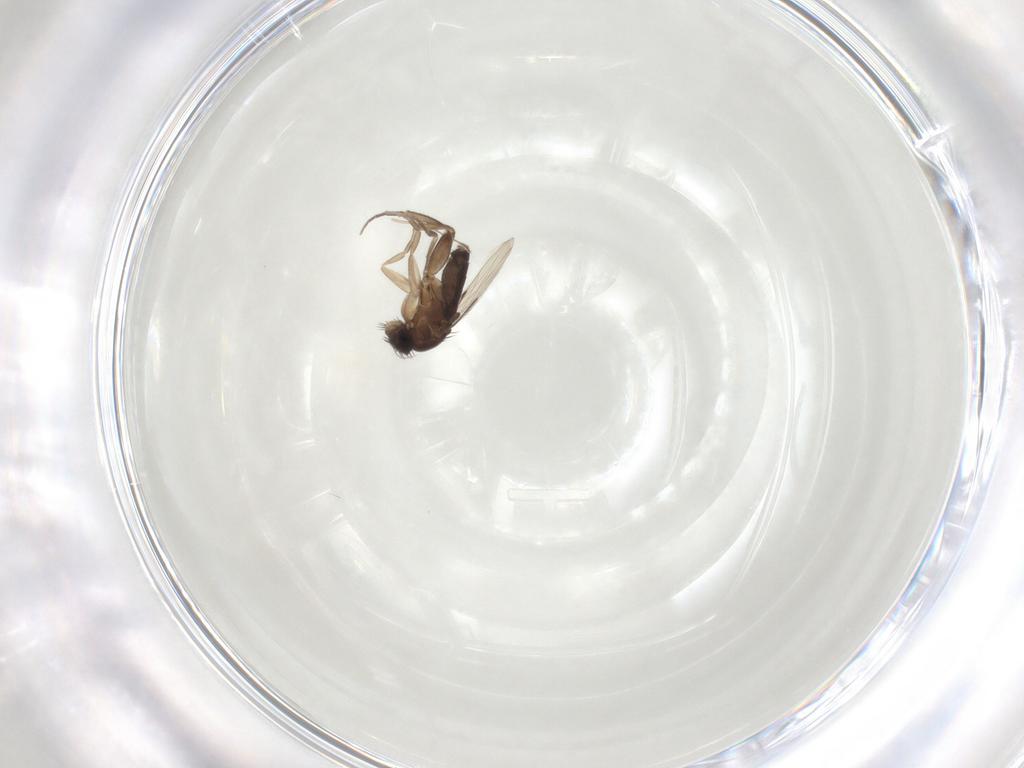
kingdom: Animalia
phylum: Arthropoda
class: Insecta
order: Diptera
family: Phoridae
